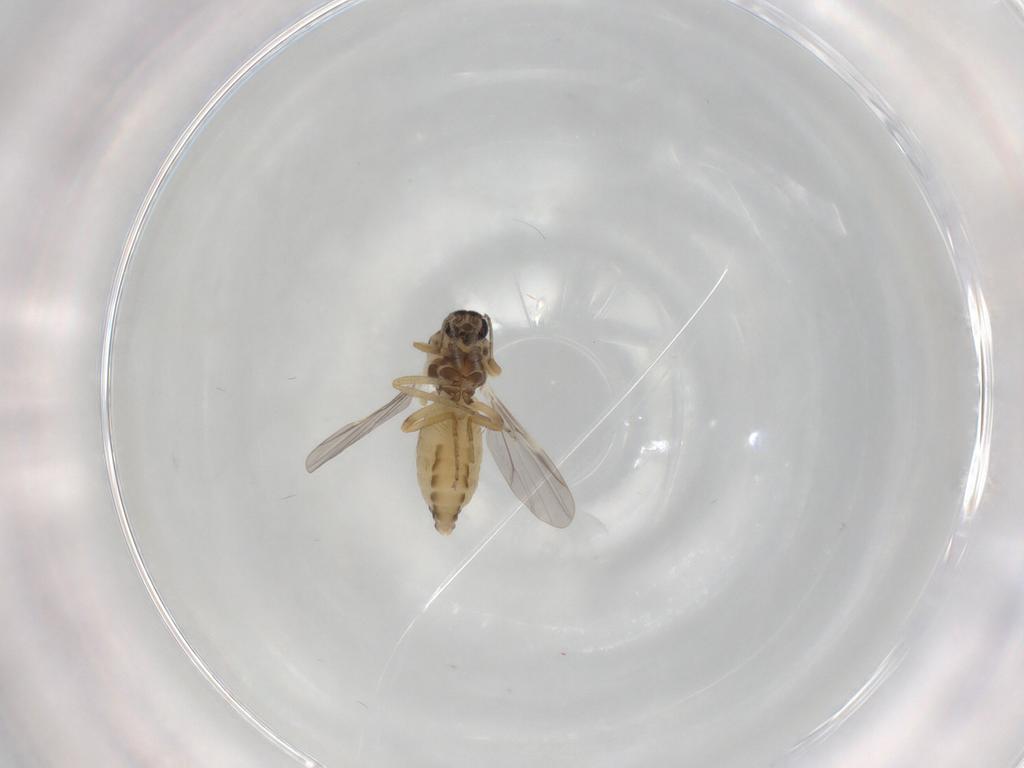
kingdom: Animalia
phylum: Arthropoda
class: Insecta
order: Diptera
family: Chironomidae
